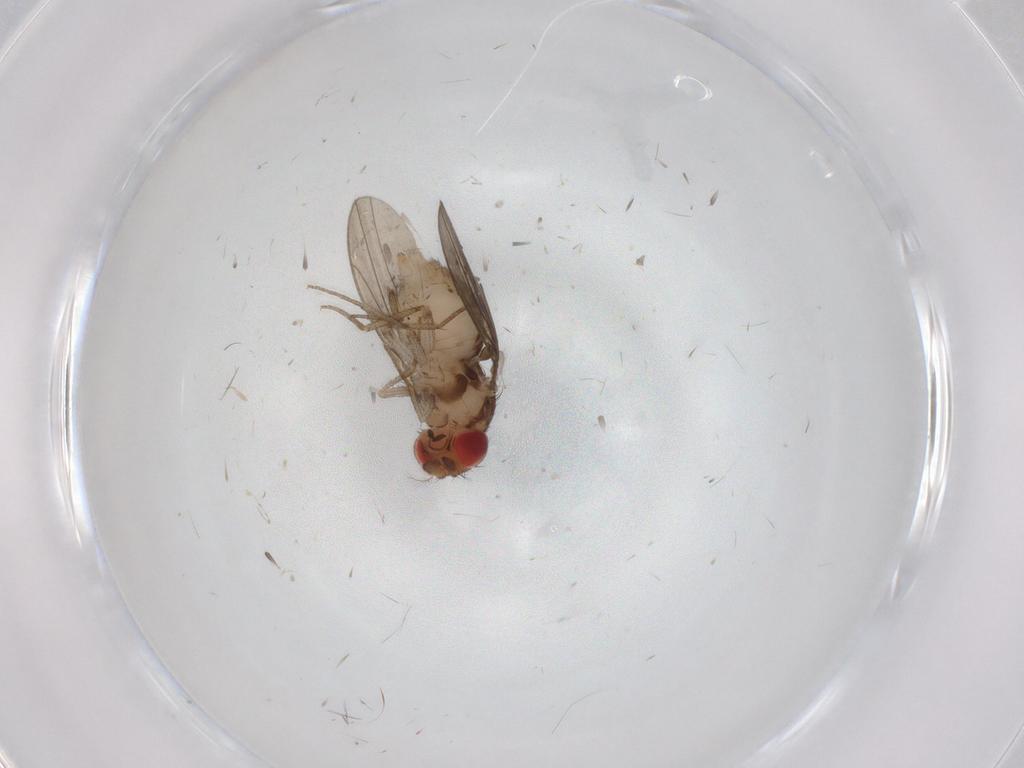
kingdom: Animalia
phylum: Arthropoda
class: Insecta
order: Diptera
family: Drosophilidae
